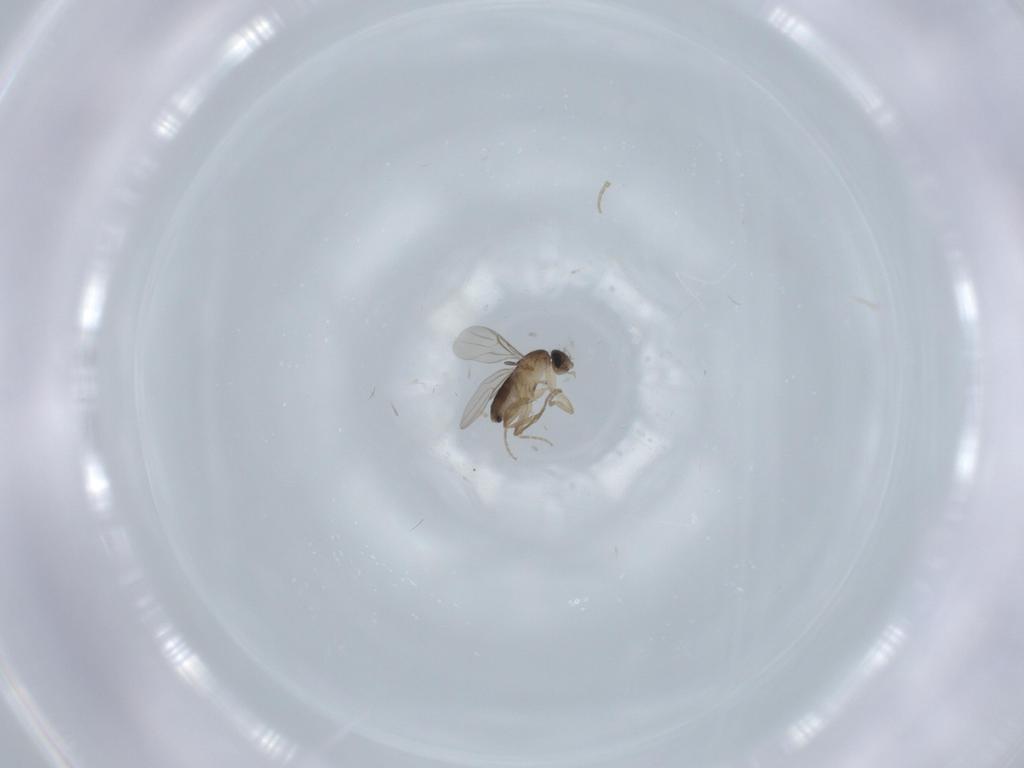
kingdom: Animalia
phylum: Arthropoda
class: Insecta
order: Diptera
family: Phoridae
